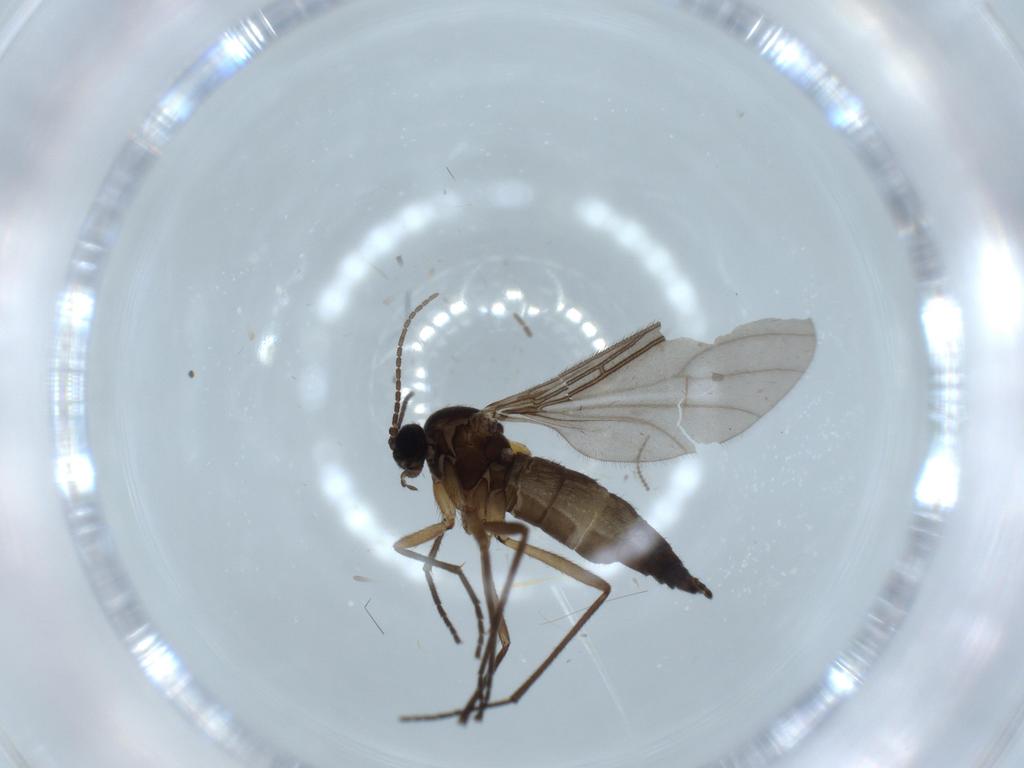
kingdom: Animalia
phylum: Arthropoda
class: Insecta
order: Diptera
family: Ceratopogonidae
